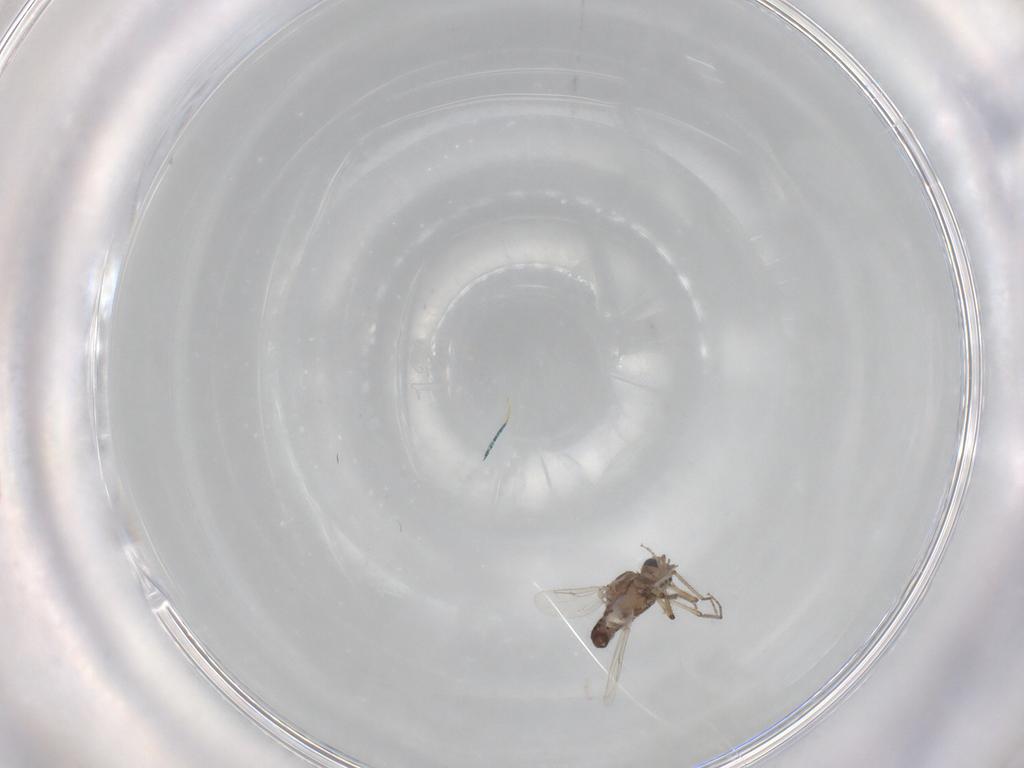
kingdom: Animalia
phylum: Arthropoda
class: Insecta
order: Diptera
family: Ceratopogonidae
